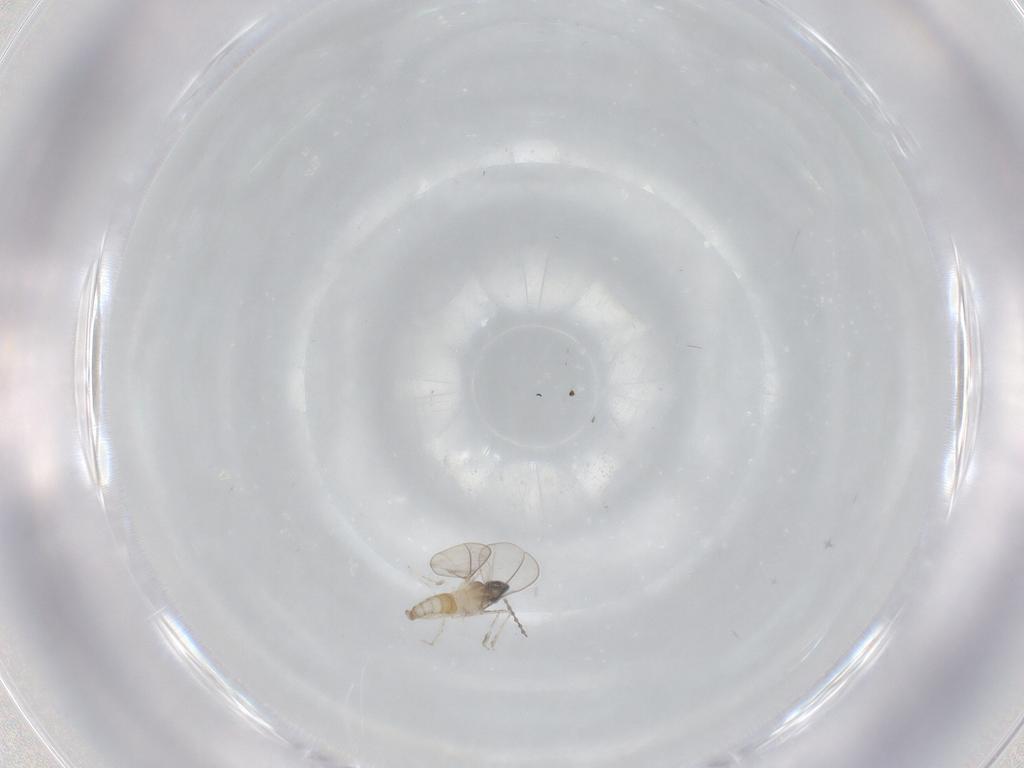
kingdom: Animalia
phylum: Arthropoda
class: Insecta
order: Diptera
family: Cecidomyiidae
